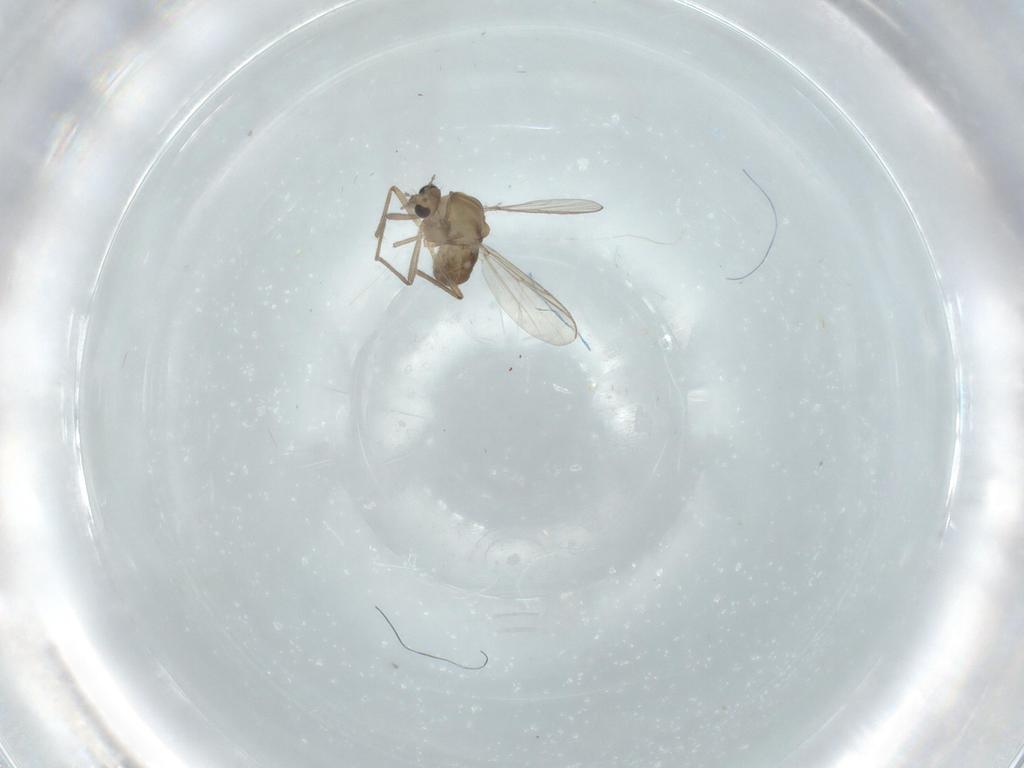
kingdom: Animalia
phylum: Arthropoda
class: Insecta
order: Diptera
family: Chironomidae
